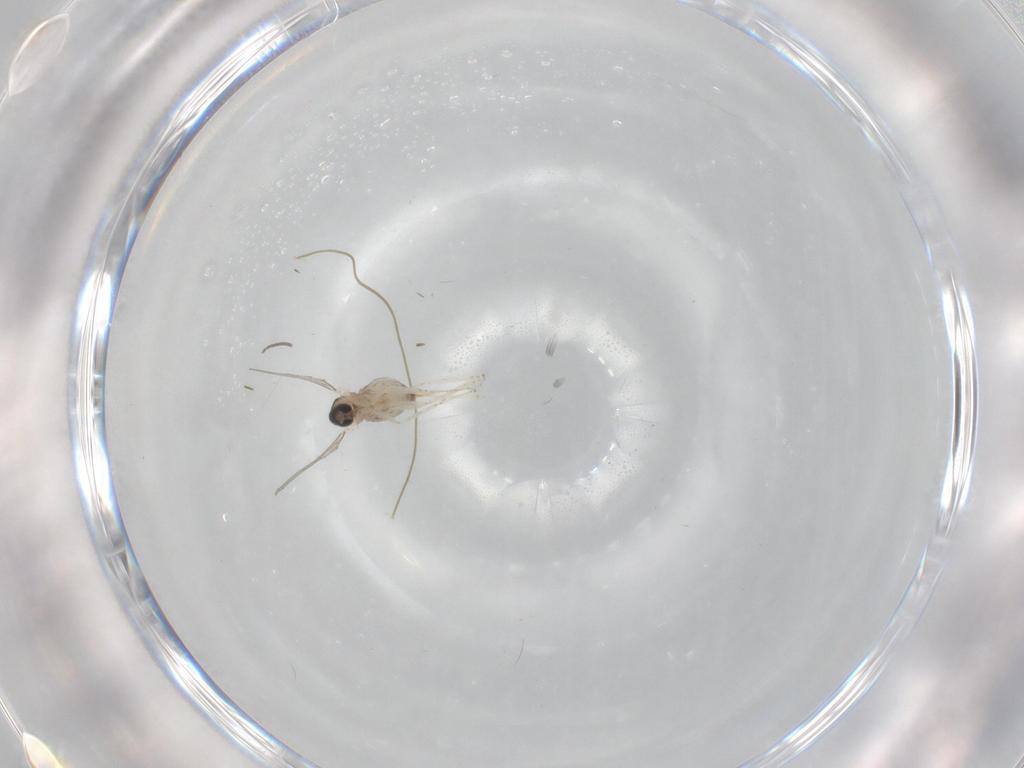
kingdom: Animalia
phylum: Arthropoda
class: Insecta
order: Diptera
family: Cecidomyiidae
